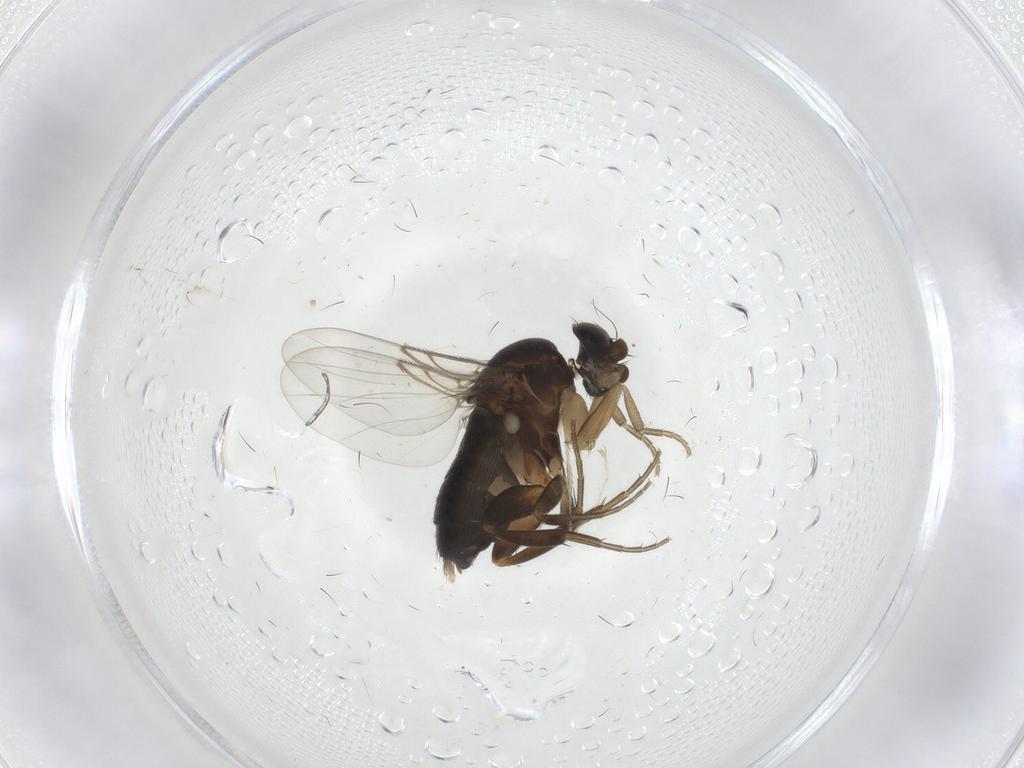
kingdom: Animalia
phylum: Arthropoda
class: Insecta
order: Diptera
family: Phoridae
